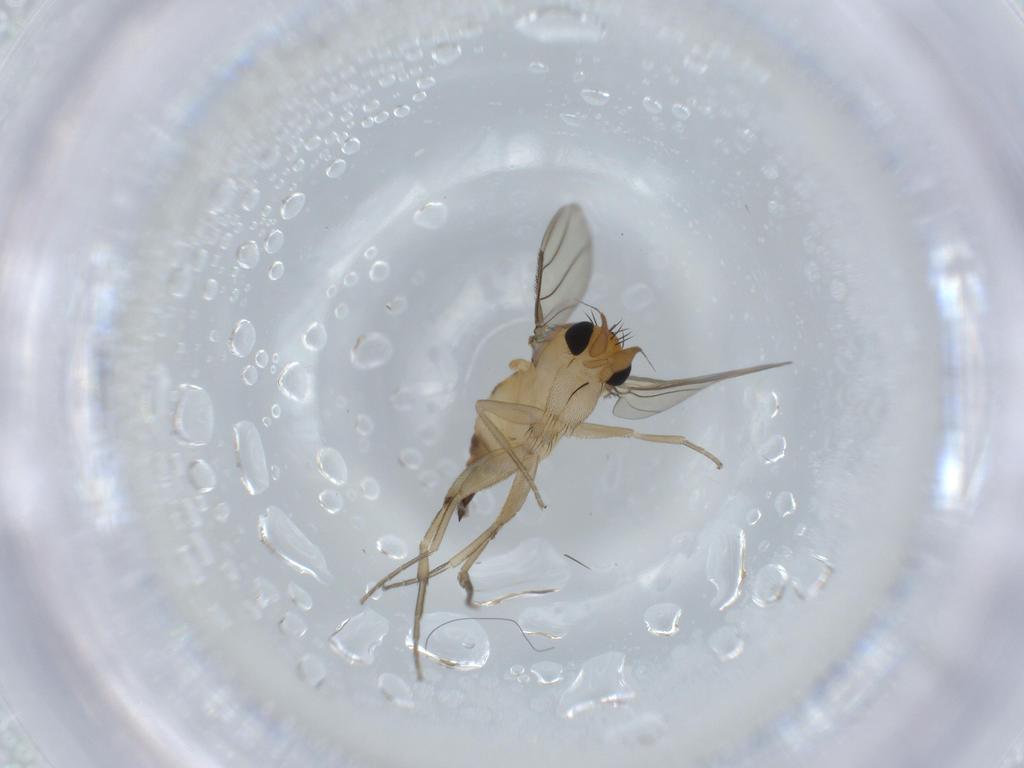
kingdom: Animalia
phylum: Arthropoda
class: Insecta
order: Diptera
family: Phoridae
